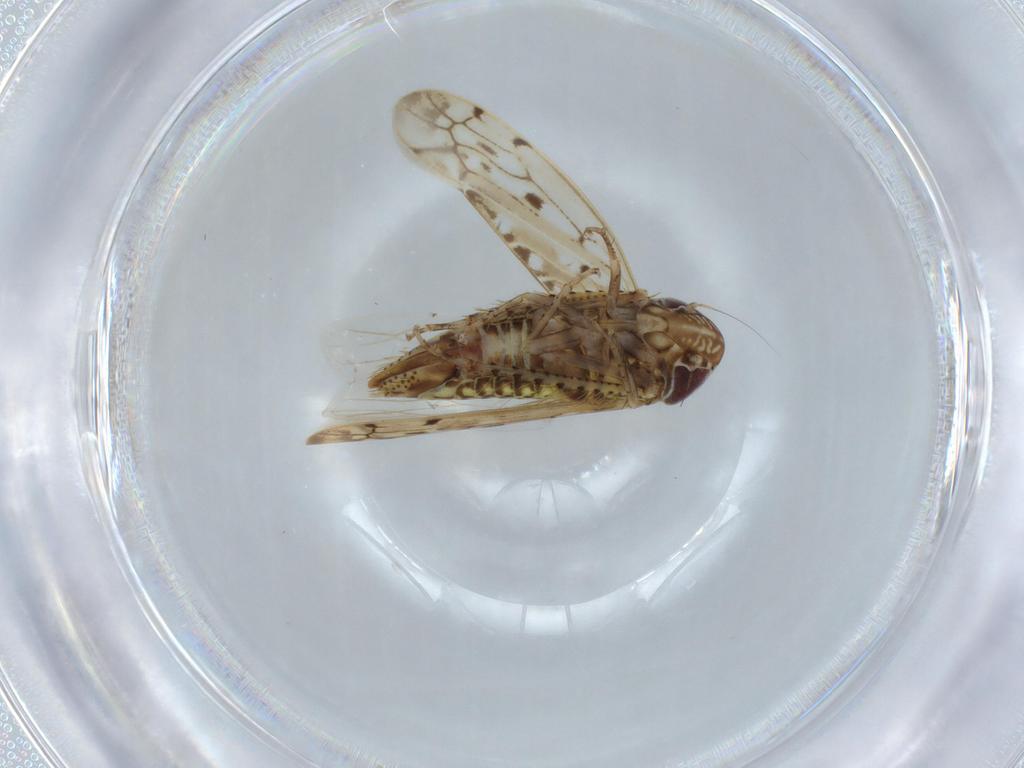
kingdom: Animalia
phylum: Arthropoda
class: Insecta
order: Hemiptera
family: Cicadellidae
